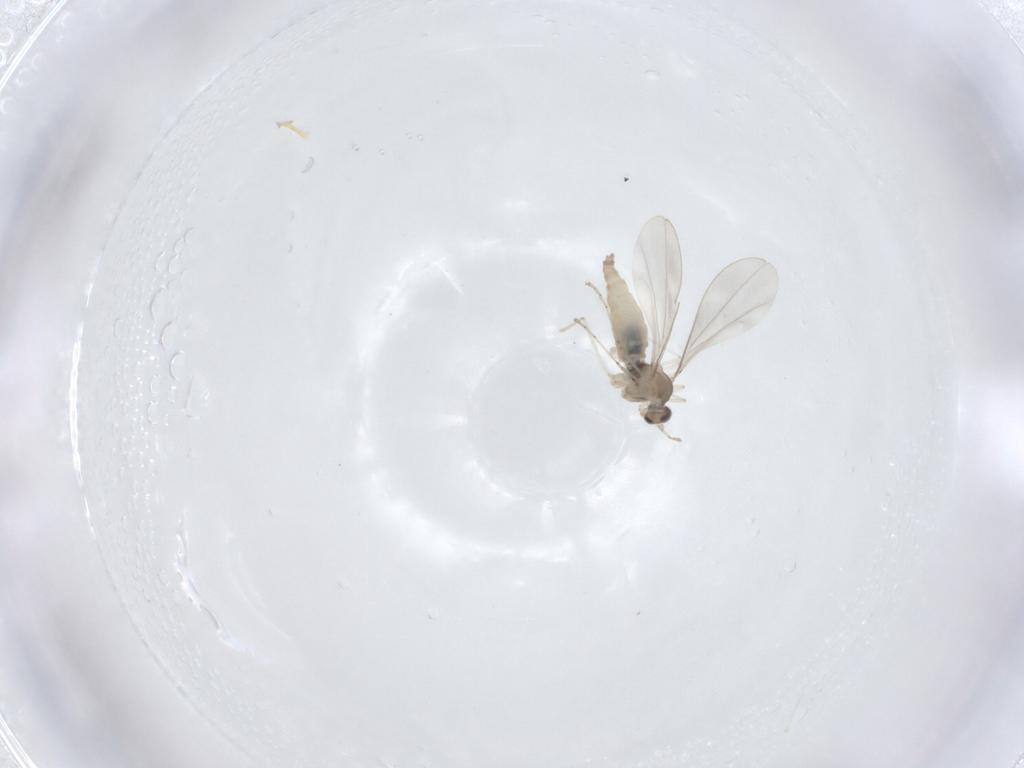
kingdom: Animalia
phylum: Arthropoda
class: Insecta
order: Diptera
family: Cecidomyiidae
